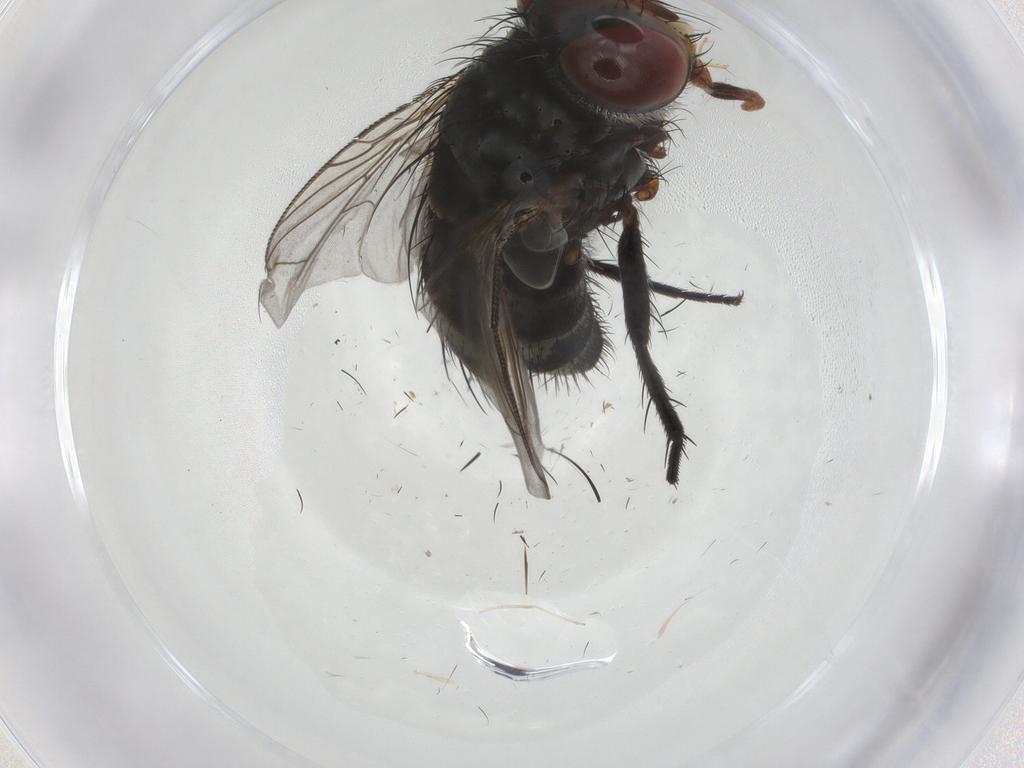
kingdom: Animalia
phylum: Arthropoda
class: Insecta
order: Diptera
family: Tachinidae
